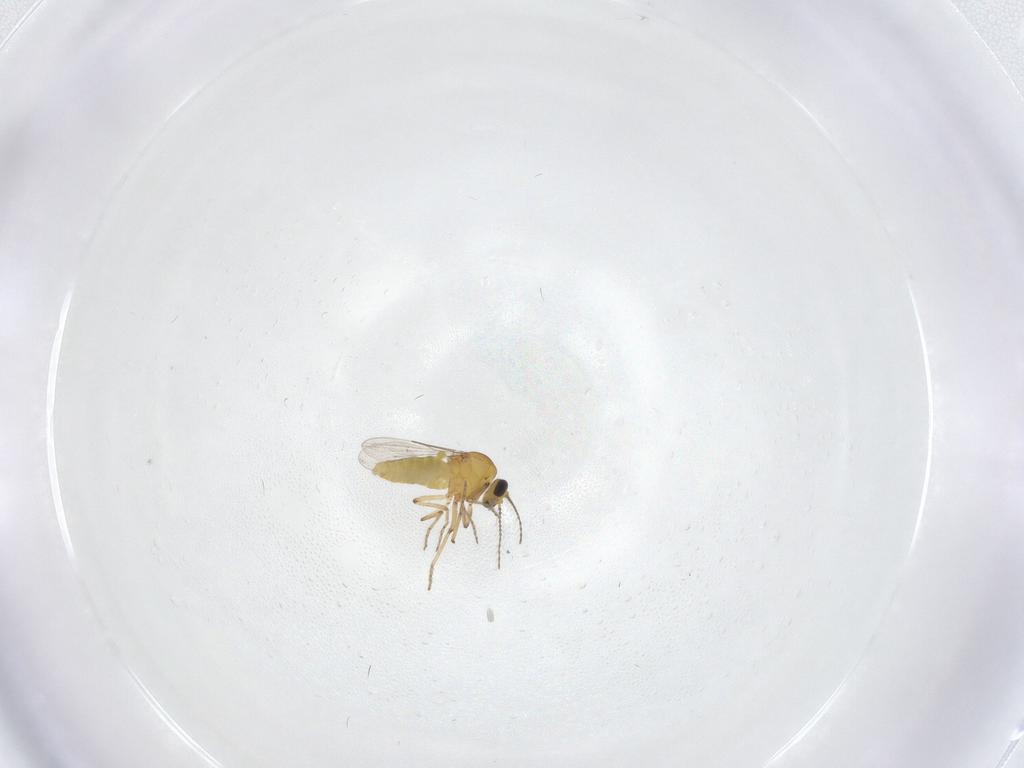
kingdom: Animalia
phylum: Arthropoda
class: Insecta
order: Diptera
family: Ceratopogonidae
